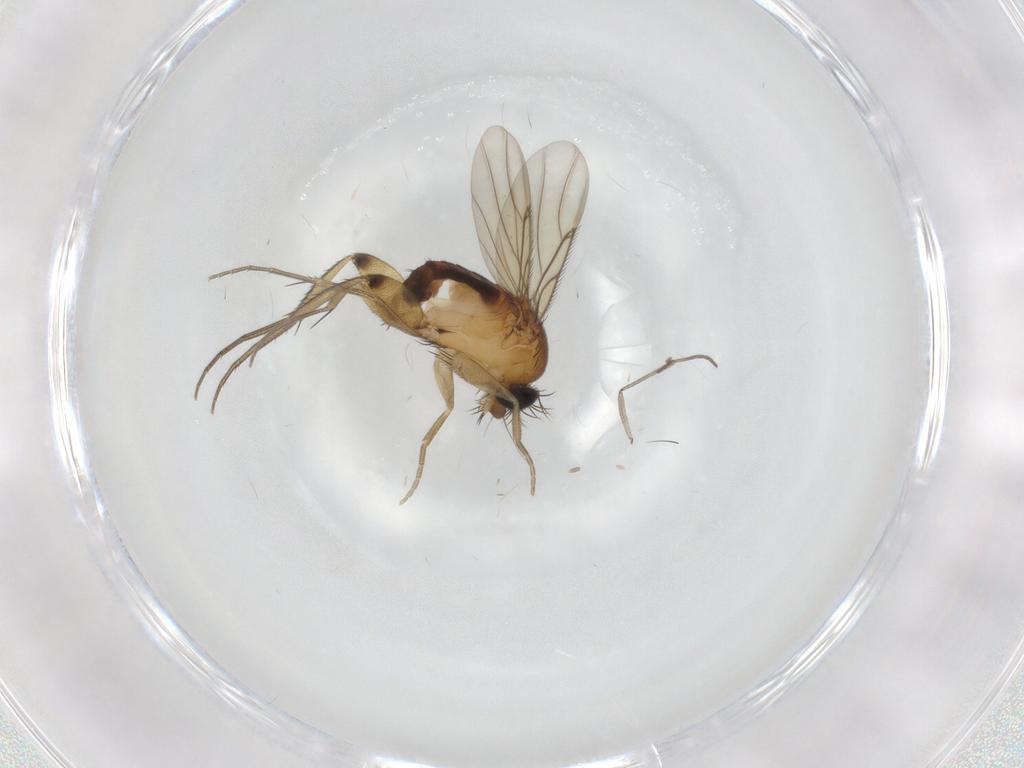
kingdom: Animalia
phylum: Arthropoda
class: Insecta
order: Diptera
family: Phoridae
